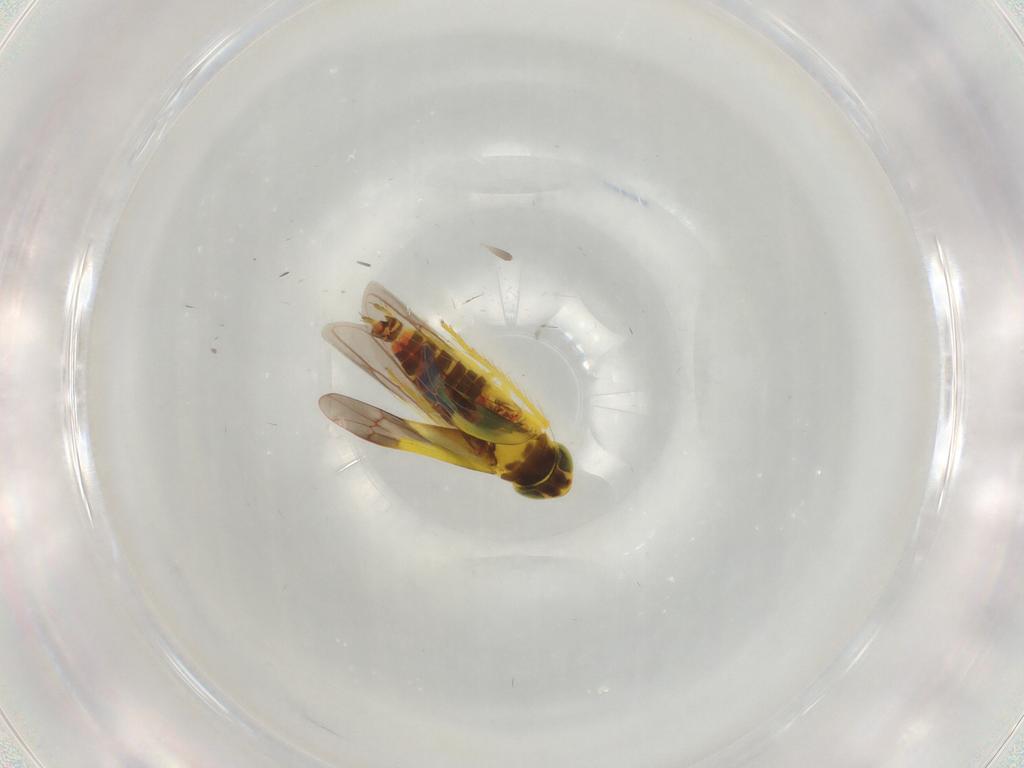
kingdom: Animalia
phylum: Arthropoda
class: Insecta
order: Hemiptera
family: Cicadellidae
